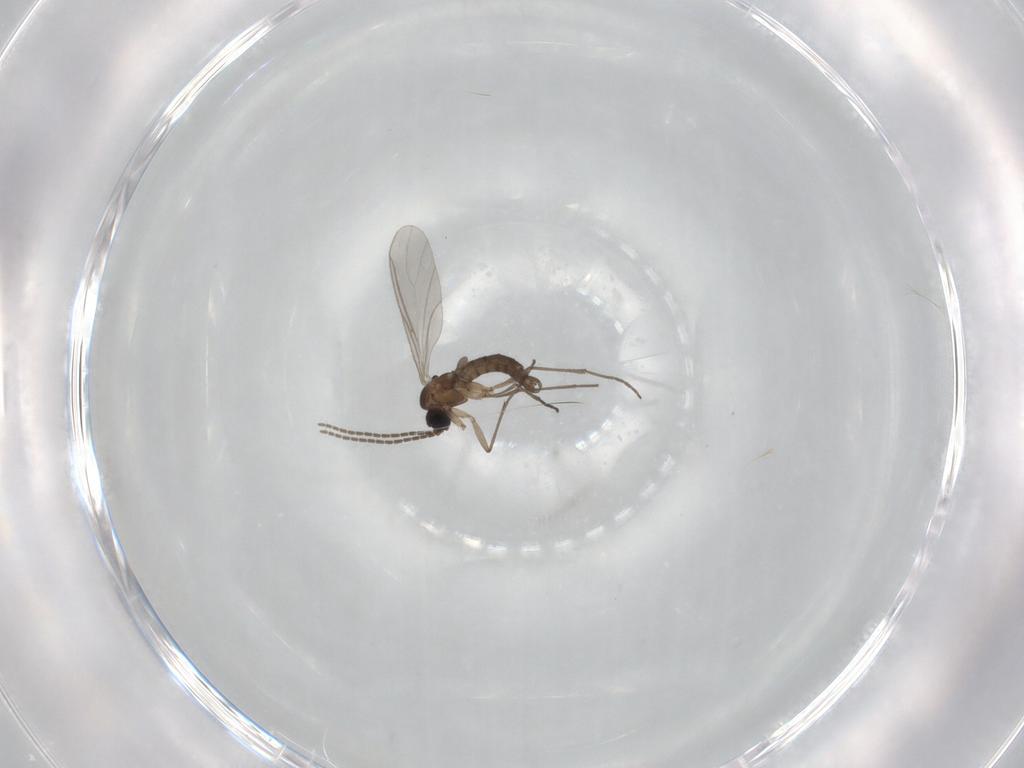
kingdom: Animalia
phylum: Arthropoda
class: Insecta
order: Diptera
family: Sciaridae
